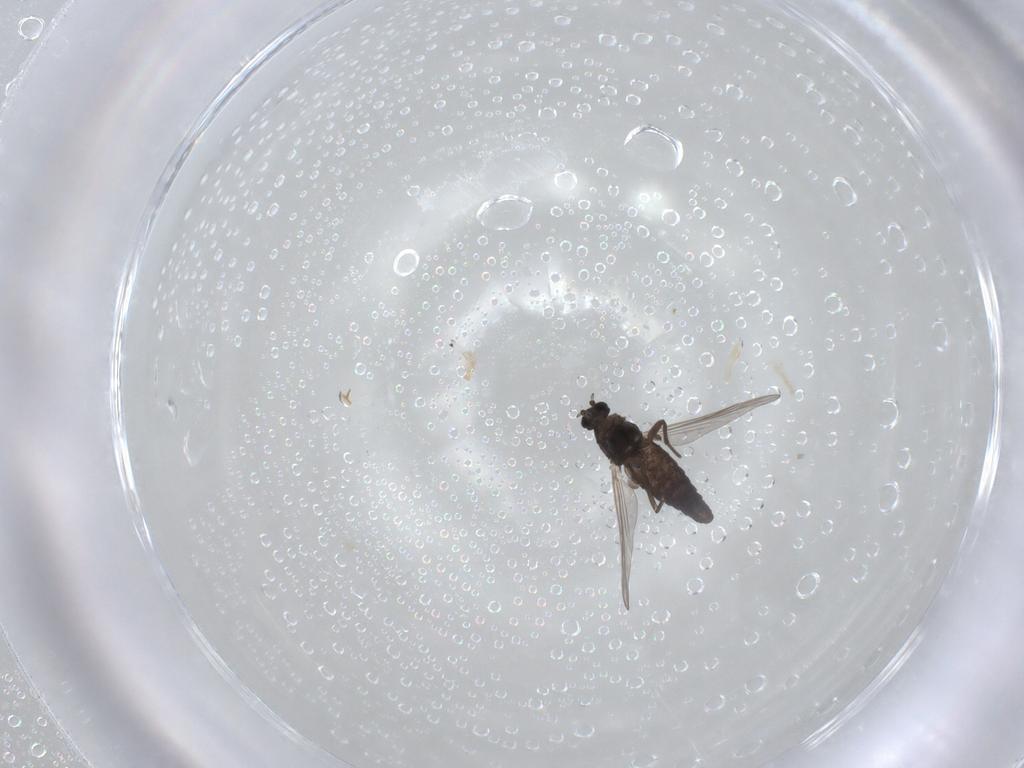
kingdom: Animalia
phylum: Arthropoda
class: Insecta
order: Diptera
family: Chironomidae
